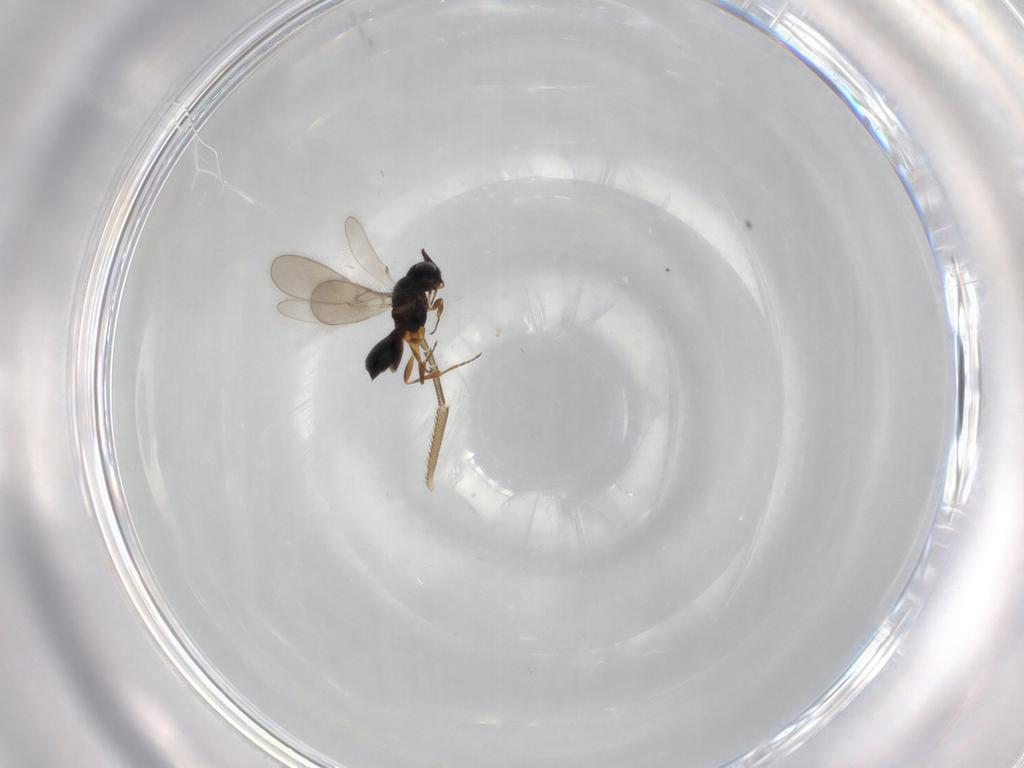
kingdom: Animalia
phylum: Arthropoda
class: Insecta
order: Hymenoptera
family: Scelionidae
